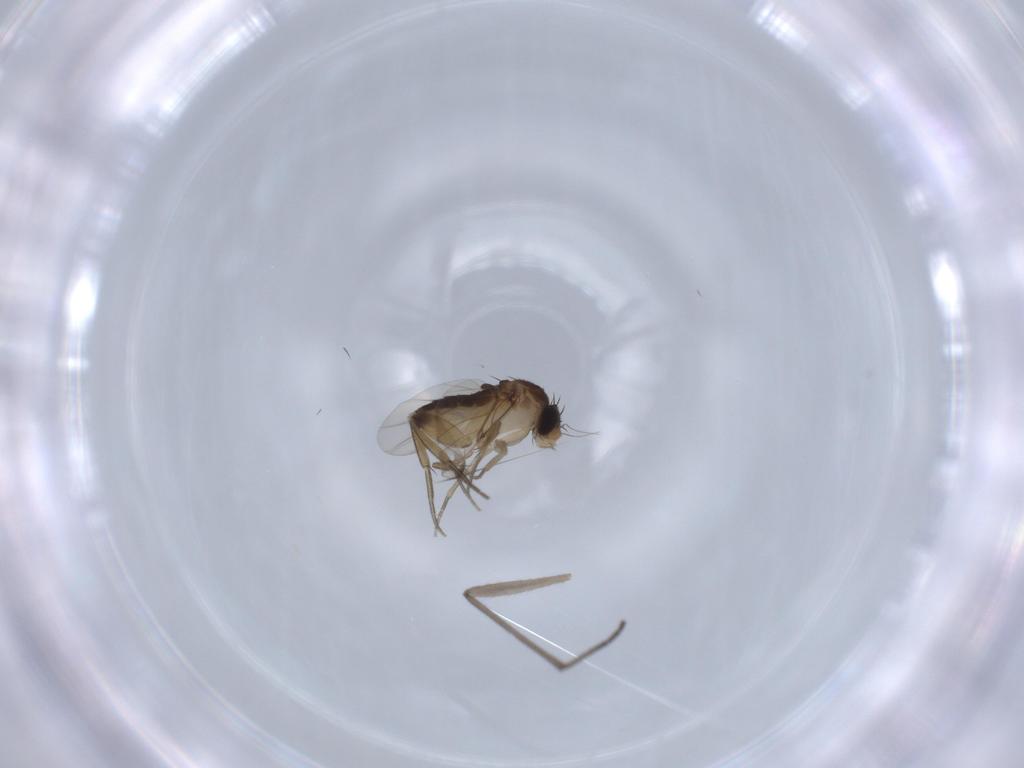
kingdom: Animalia
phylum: Arthropoda
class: Insecta
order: Diptera
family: Phoridae
